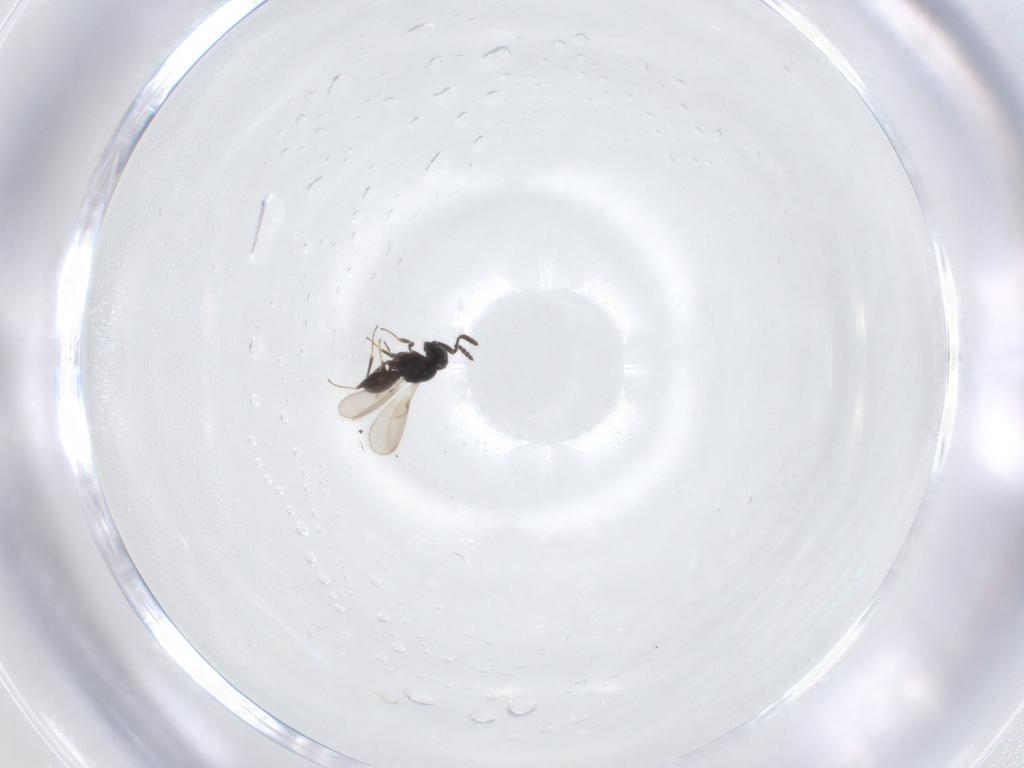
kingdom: Animalia
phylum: Arthropoda
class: Insecta
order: Hymenoptera
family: Scelionidae
